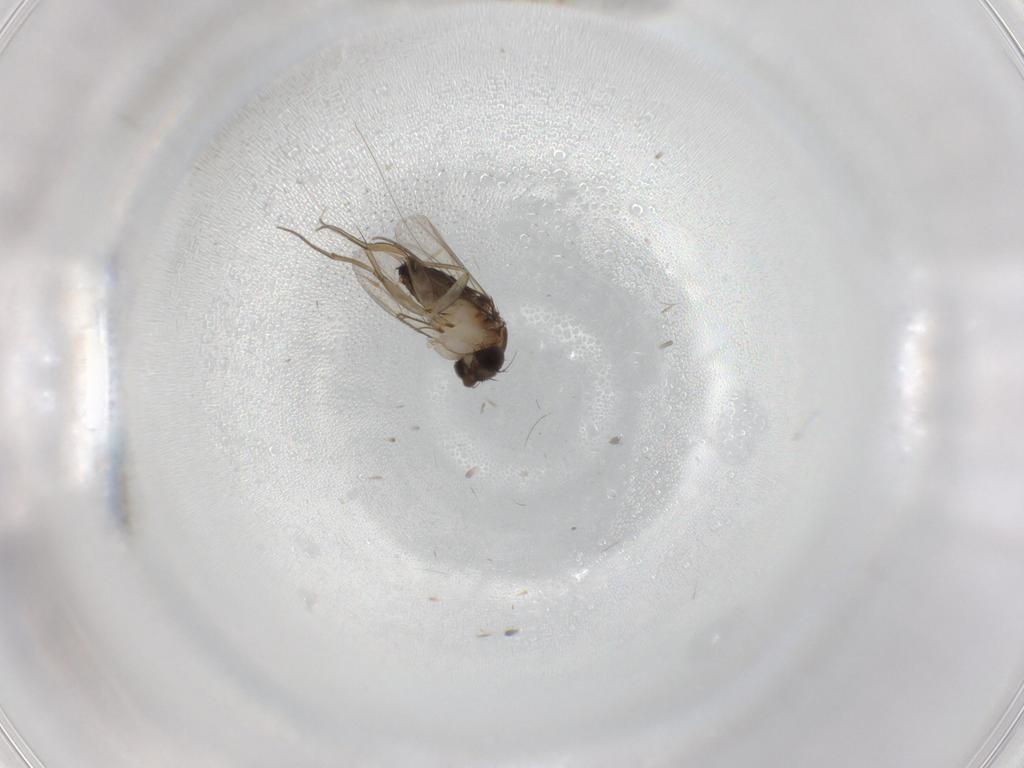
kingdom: Animalia
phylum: Arthropoda
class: Insecta
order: Diptera
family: Phoridae
